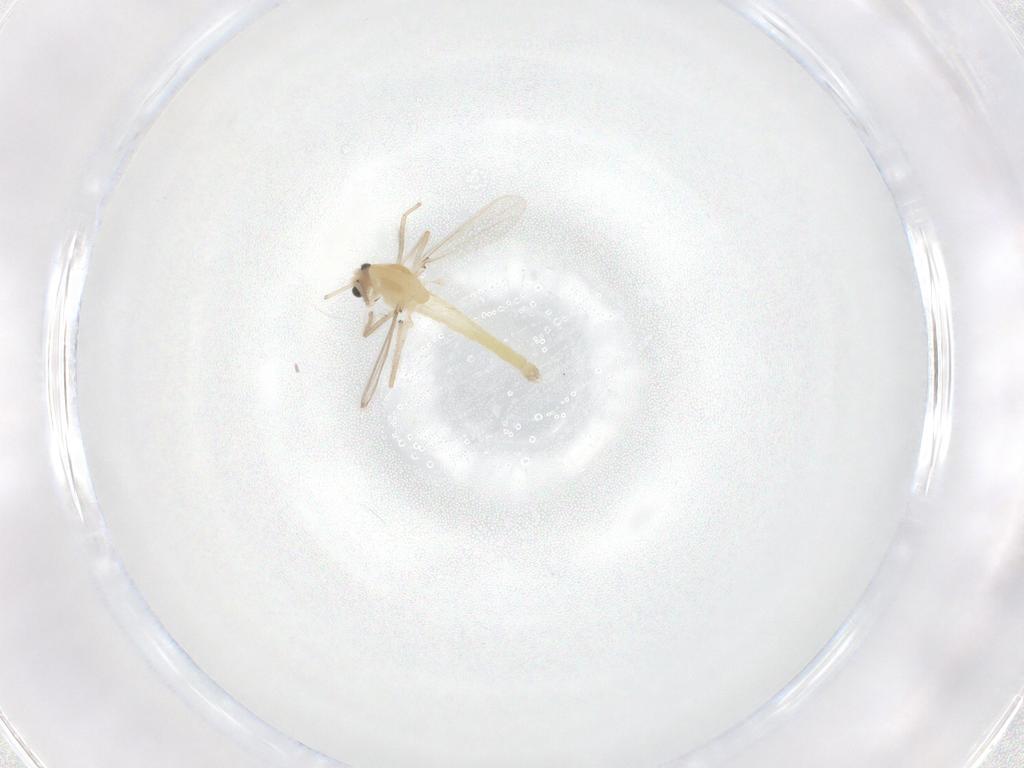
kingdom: Animalia
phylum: Arthropoda
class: Insecta
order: Diptera
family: Chironomidae
